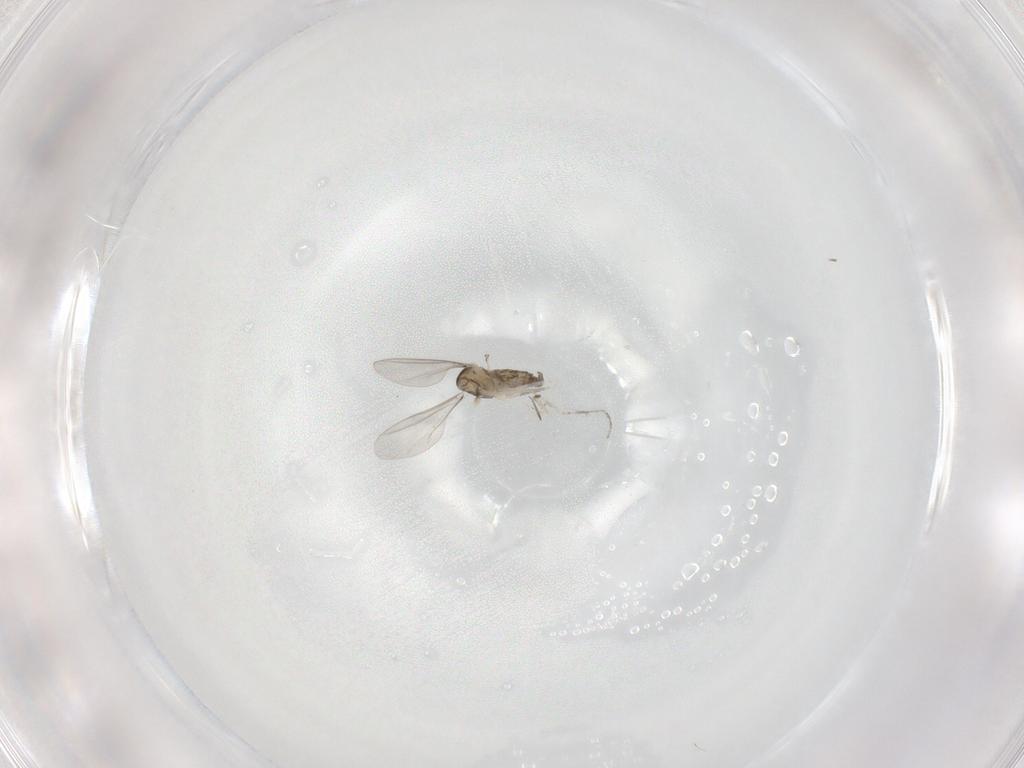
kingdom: Animalia
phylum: Arthropoda
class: Insecta
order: Diptera
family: Cecidomyiidae
